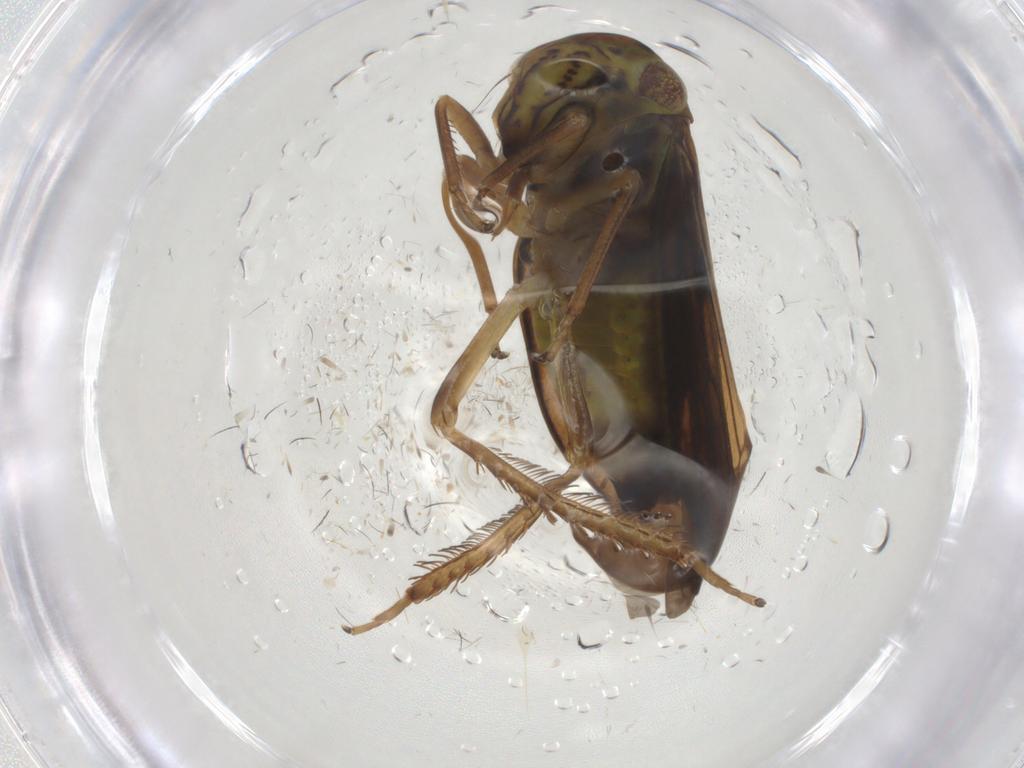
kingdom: Animalia
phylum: Arthropoda
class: Insecta
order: Hemiptera
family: Cicadellidae
